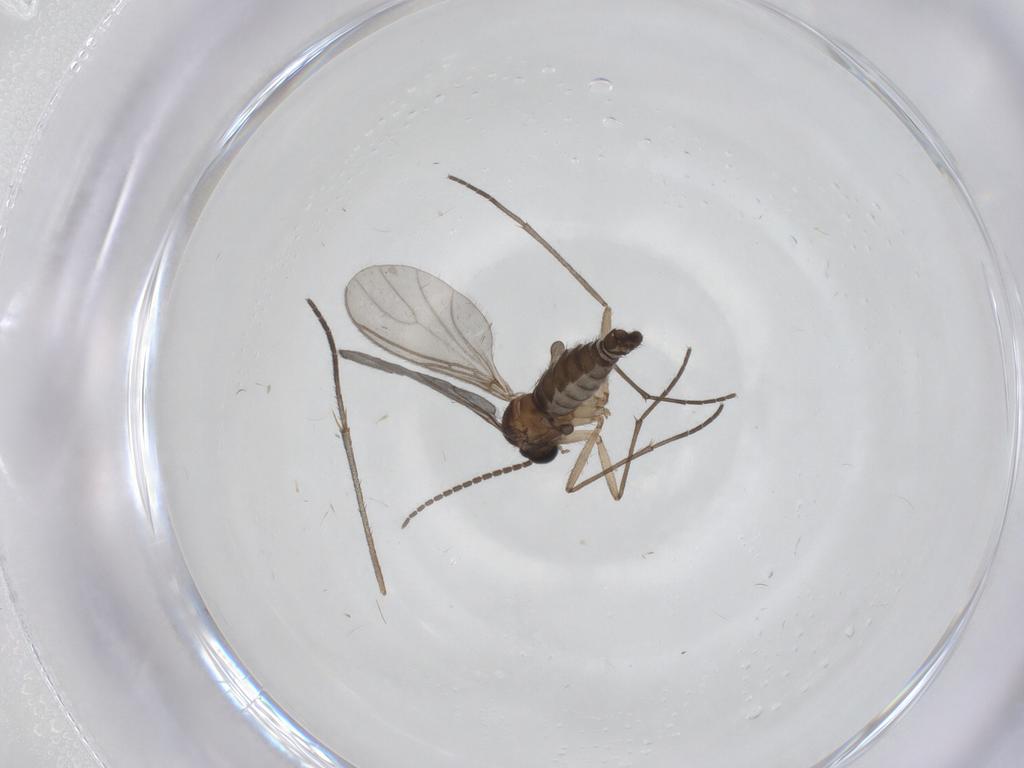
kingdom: Animalia
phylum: Arthropoda
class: Insecta
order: Diptera
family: Sciaridae
